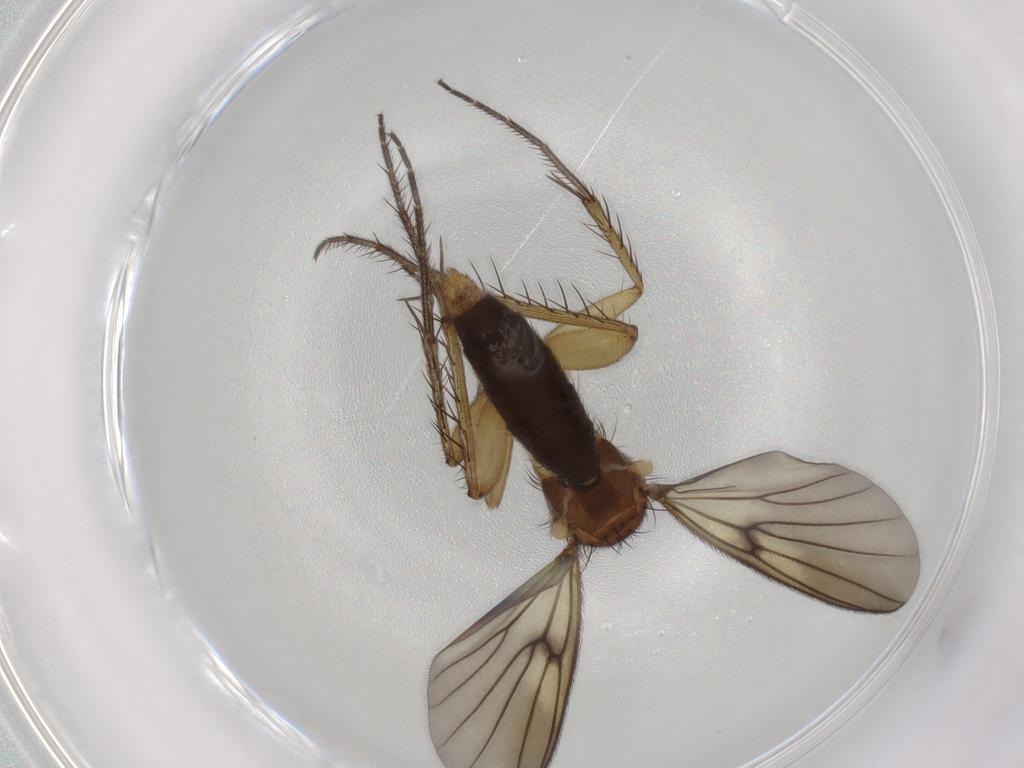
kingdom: Animalia
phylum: Arthropoda
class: Insecta
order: Diptera
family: Mycetophilidae
